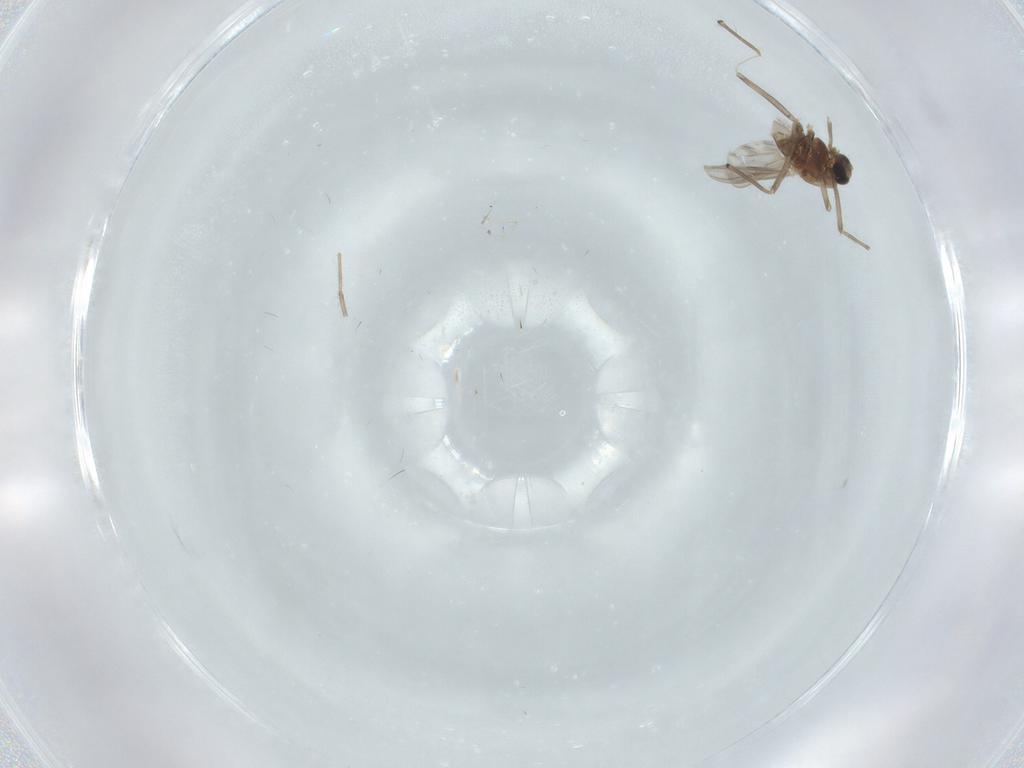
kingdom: Animalia
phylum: Arthropoda
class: Insecta
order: Diptera
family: Chironomidae
